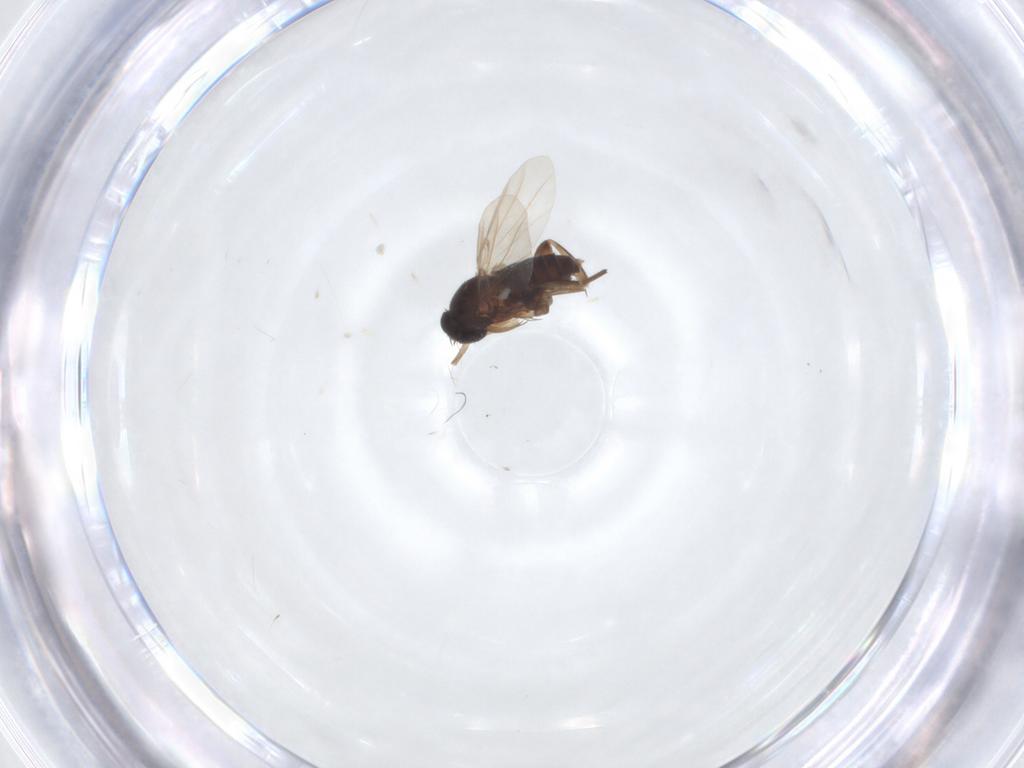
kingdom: Animalia
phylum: Arthropoda
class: Insecta
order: Diptera
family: Phoridae
